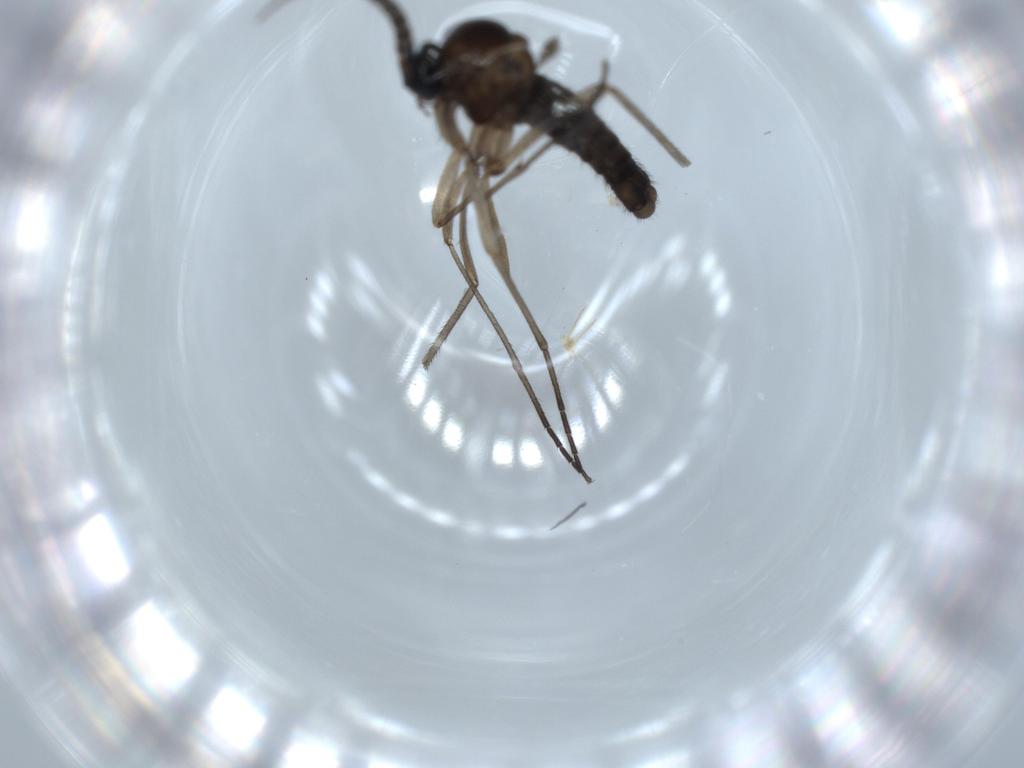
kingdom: Animalia
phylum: Arthropoda
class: Insecta
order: Diptera
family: Sciaridae
